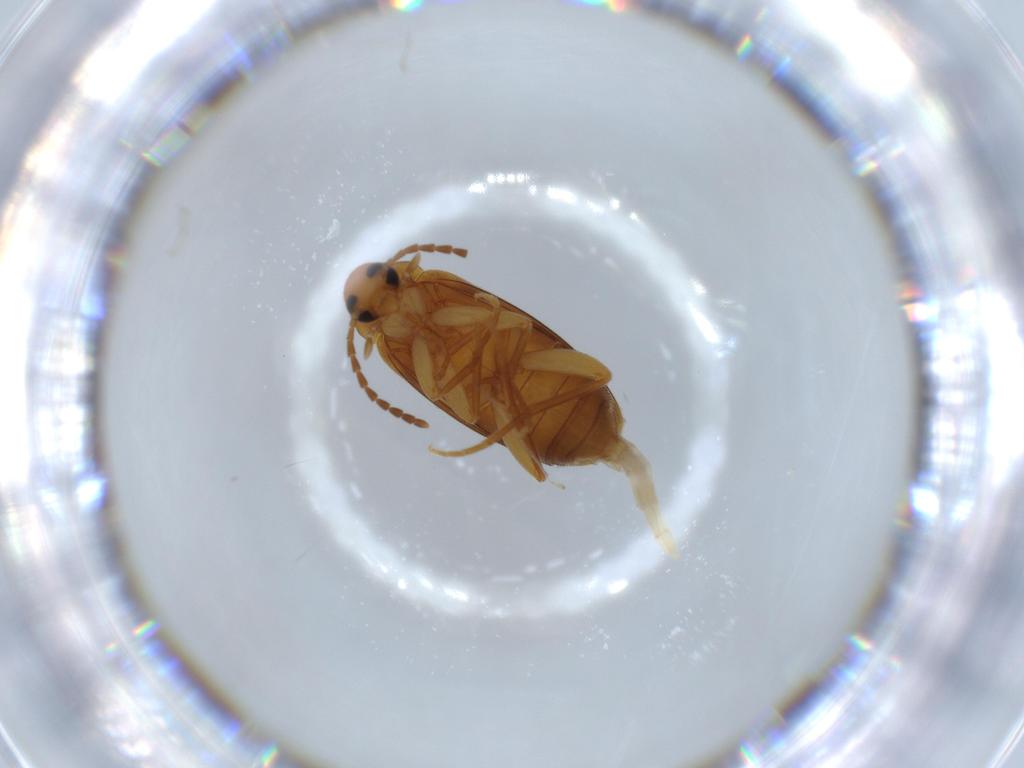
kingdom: Animalia
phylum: Arthropoda
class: Insecta
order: Coleoptera
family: Scraptiidae
